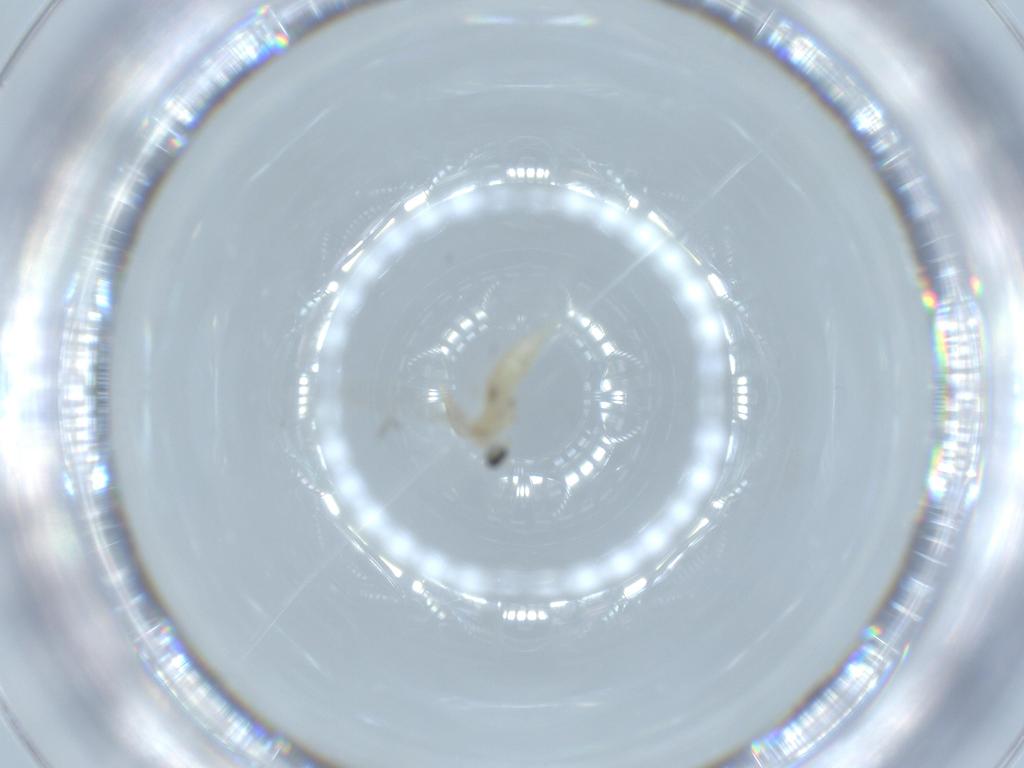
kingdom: Animalia
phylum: Arthropoda
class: Insecta
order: Diptera
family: Cecidomyiidae
